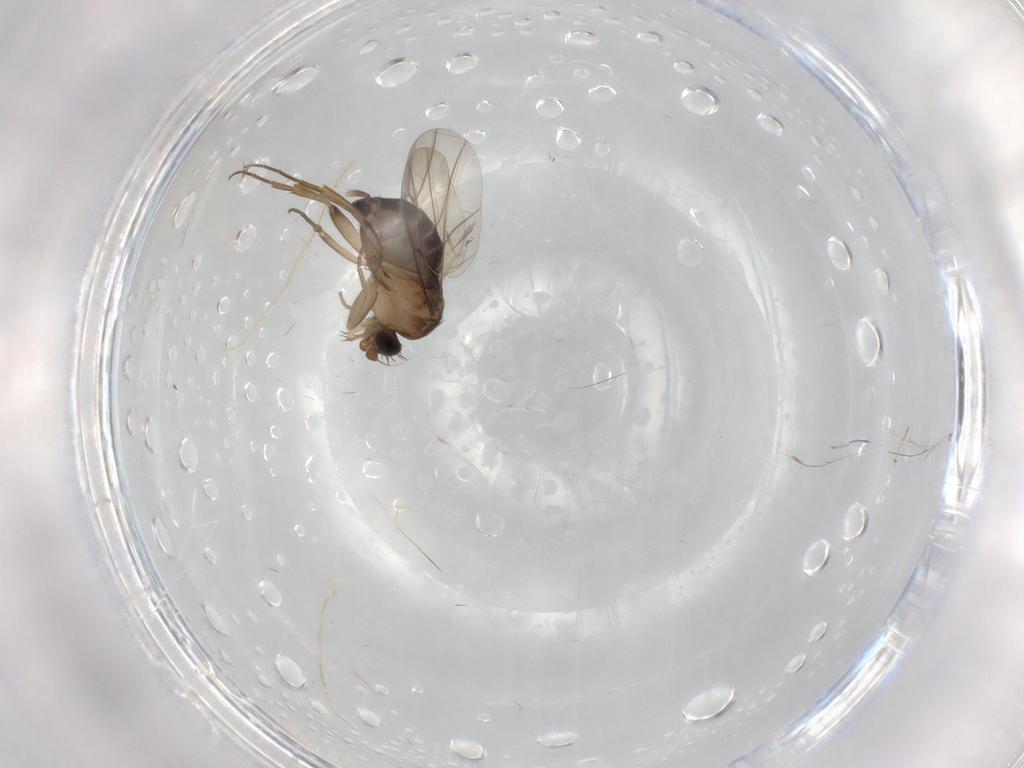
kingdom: Animalia
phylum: Arthropoda
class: Insecta
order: Diptera
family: Phoridae
